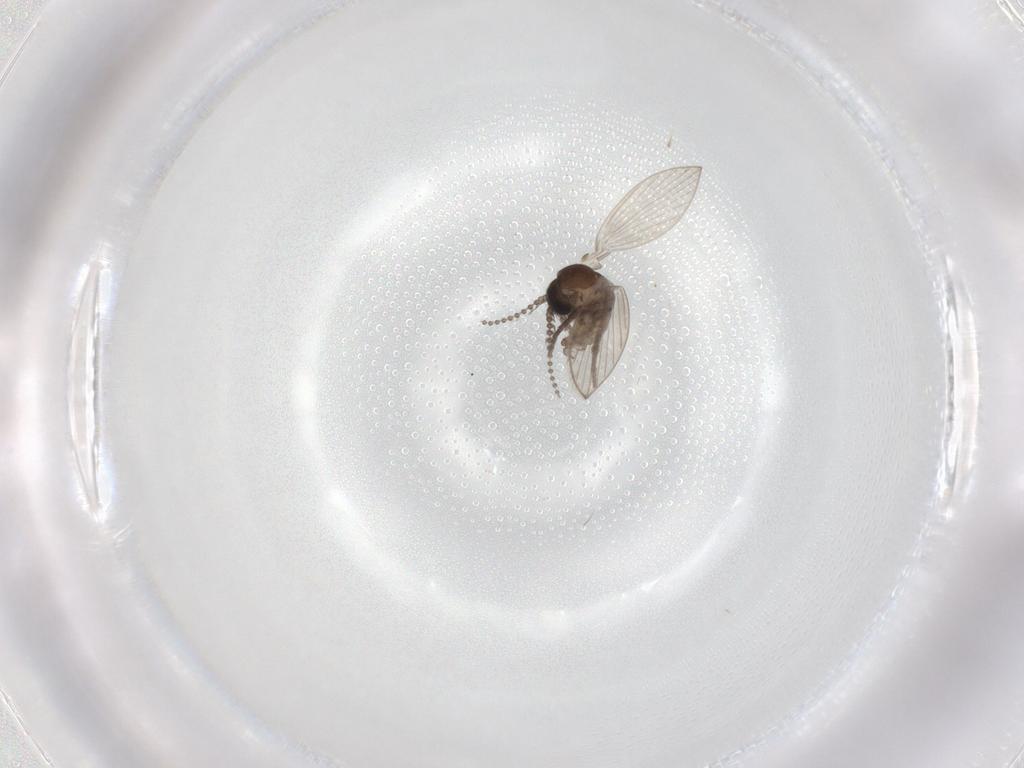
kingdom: Animalia
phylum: Arthropoda
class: Insecta
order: Diptera
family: Psychodidae
